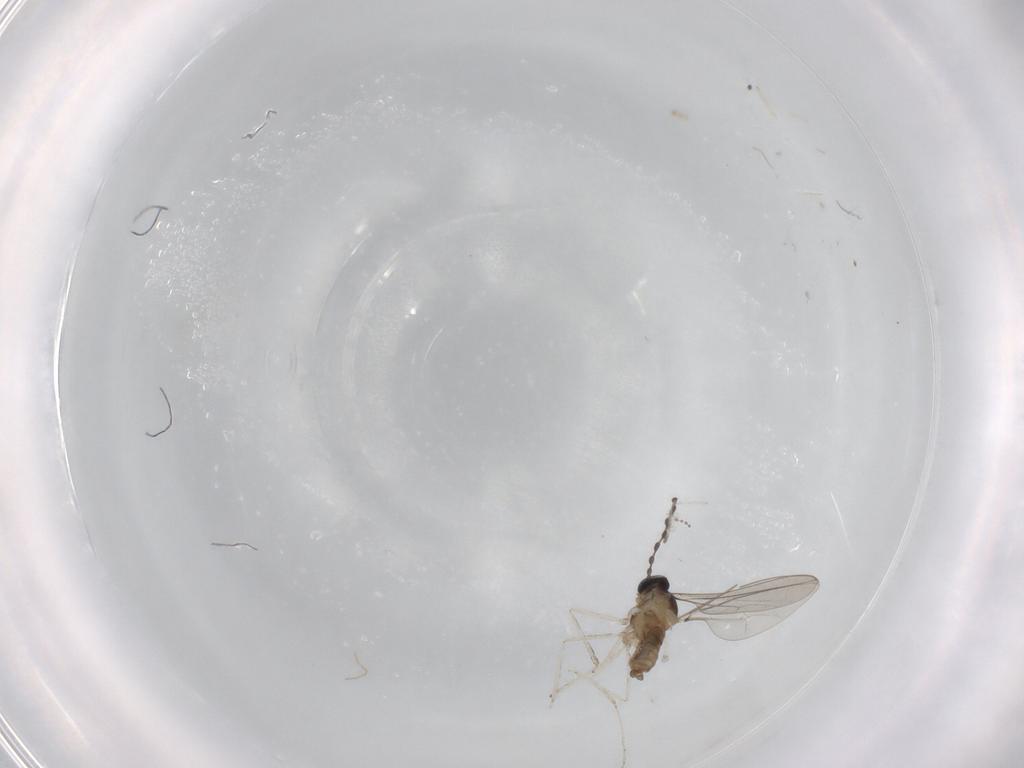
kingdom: Animalia
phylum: Arthropoda
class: Insecta
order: Diptera
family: Cecidomyiidae
